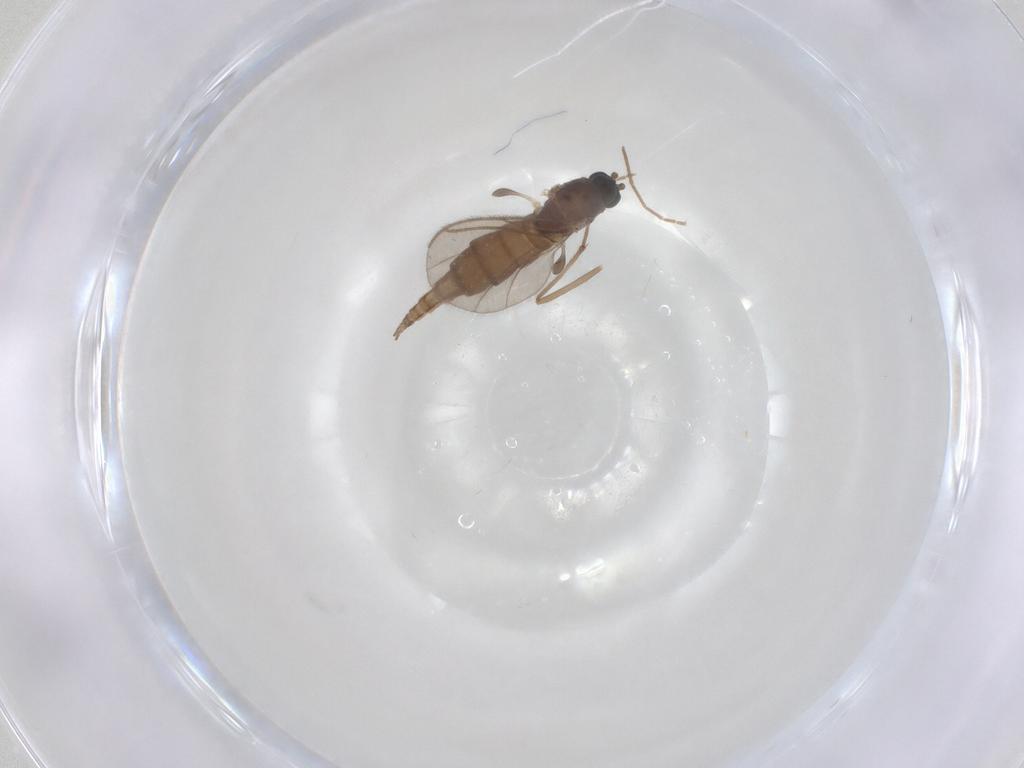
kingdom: Animalia
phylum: Arthropoda
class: Insecta
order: Diptera
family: Sciaridae
